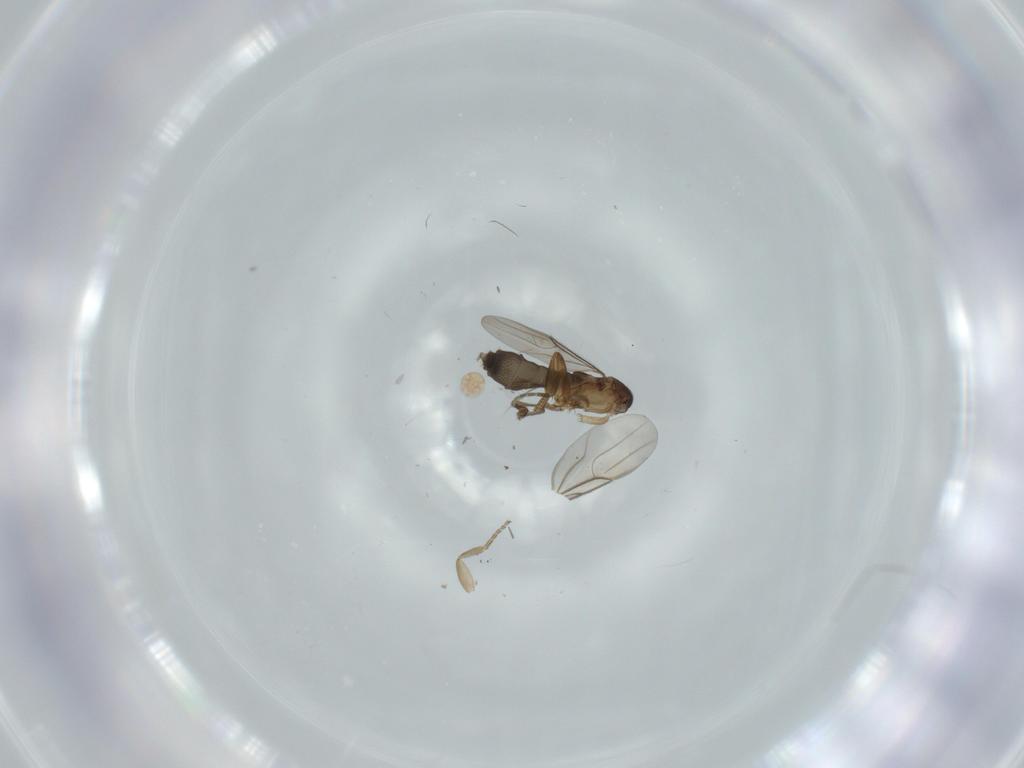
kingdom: Animalia
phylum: Arthropoda
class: Insecta
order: Diptera
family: Phoridae
